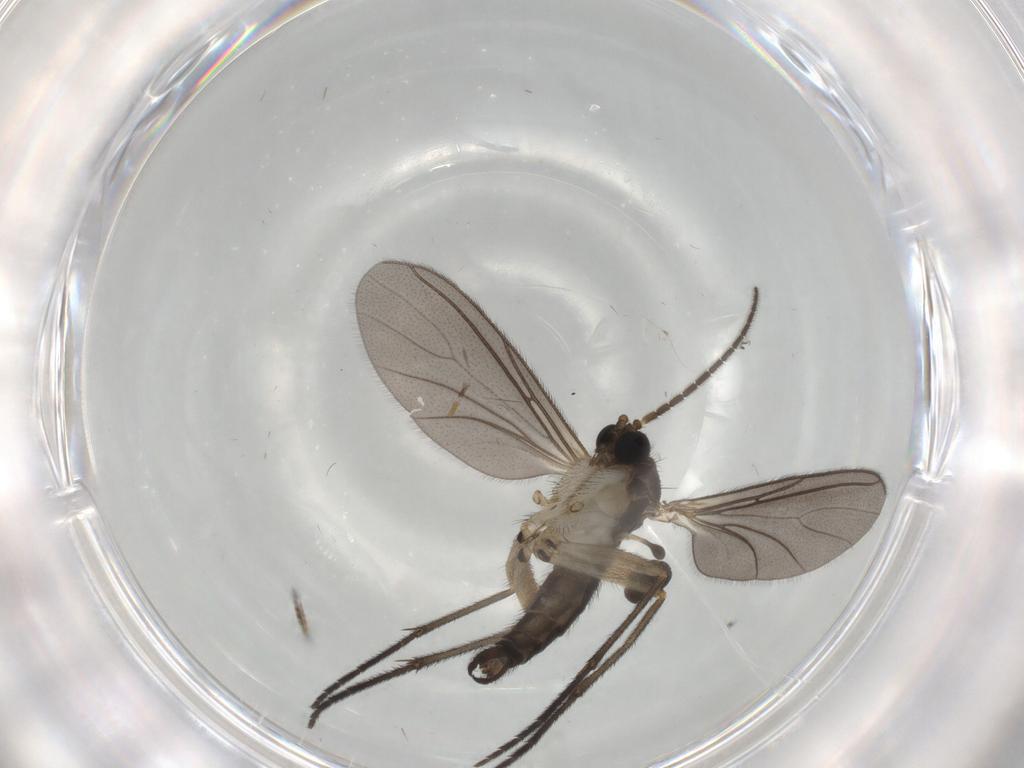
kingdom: Animalia
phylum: Arthropoda
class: Insecta
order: Diptera
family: Sciaridae
